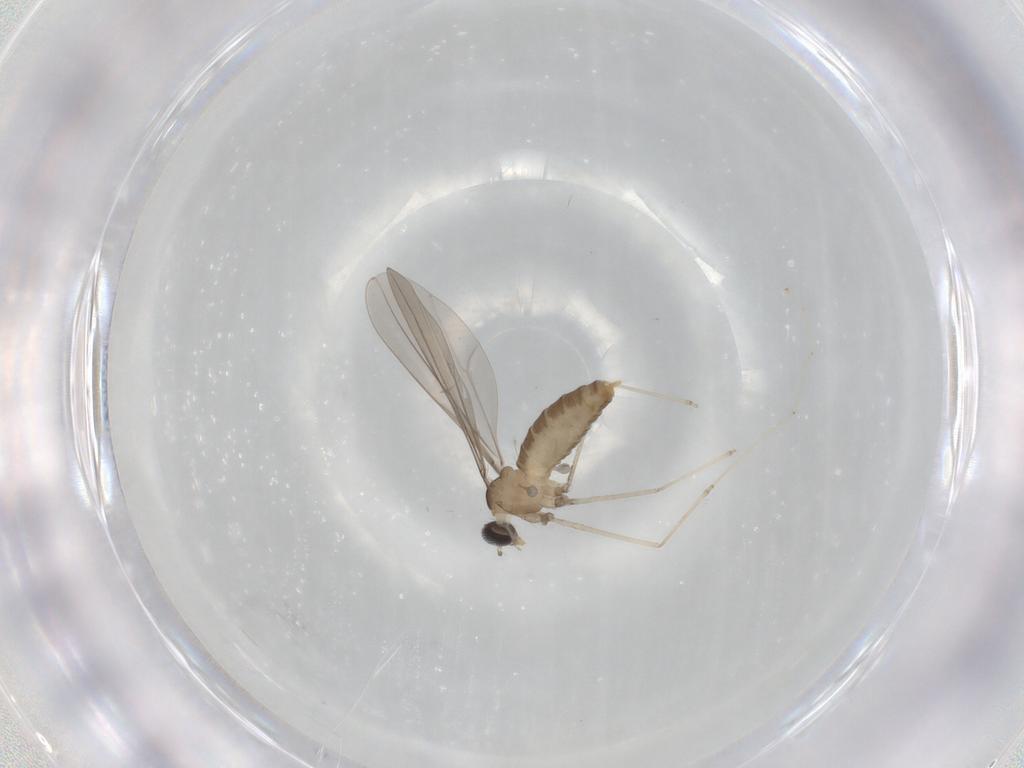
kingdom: Animalia
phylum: Arthropoda
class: Insecta
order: Diptera
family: Cecidomyiidae
